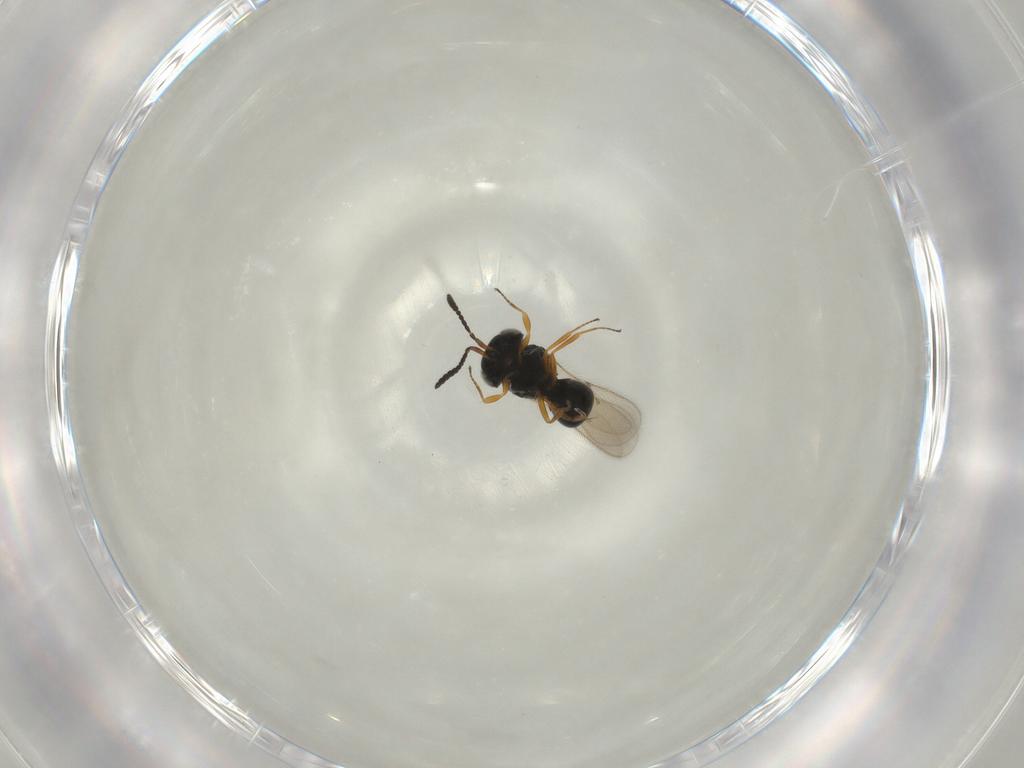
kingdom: Animalia
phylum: Arthropoda
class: Insecta
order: Hymenoptera
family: Scelionidae
